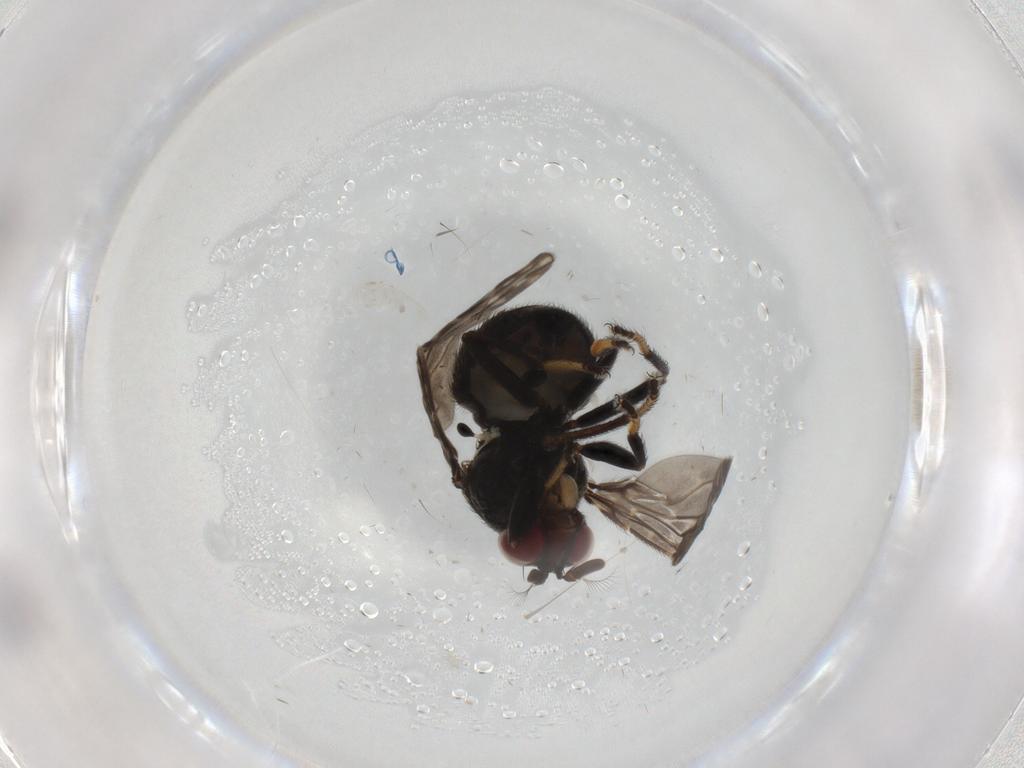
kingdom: Animalia
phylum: Arthropoda
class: Insecta
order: Diptera
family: Ephydridae
